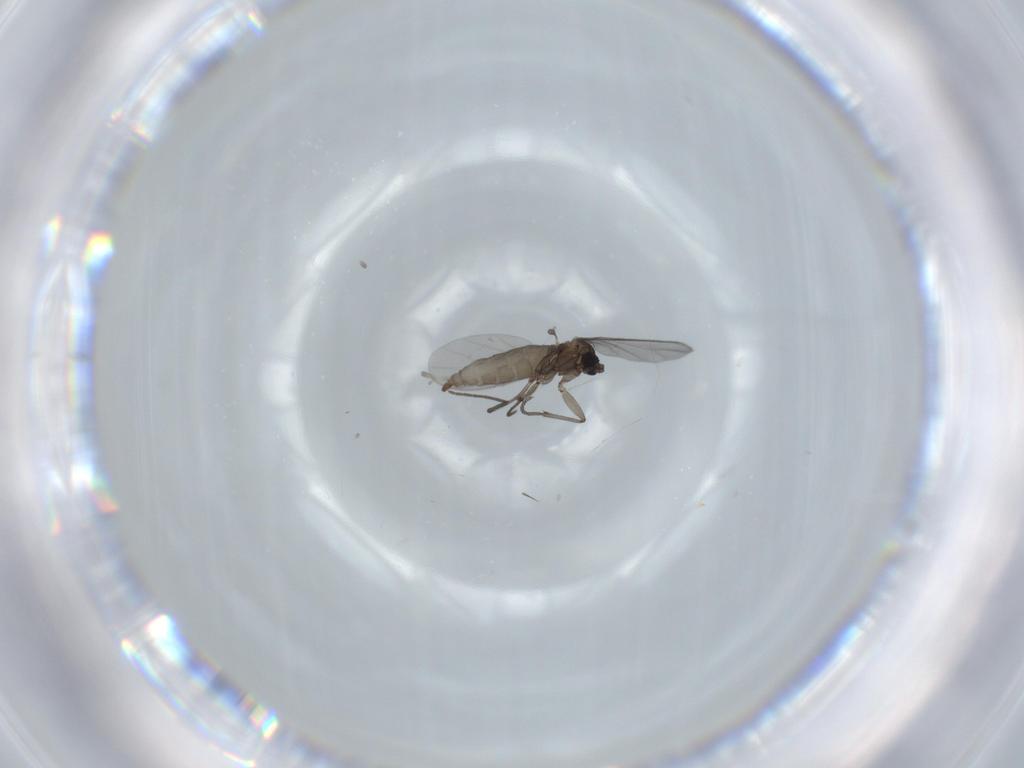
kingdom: Animalia
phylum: Arthropoda
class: Insecta
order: Diptera
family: Sciaridae
